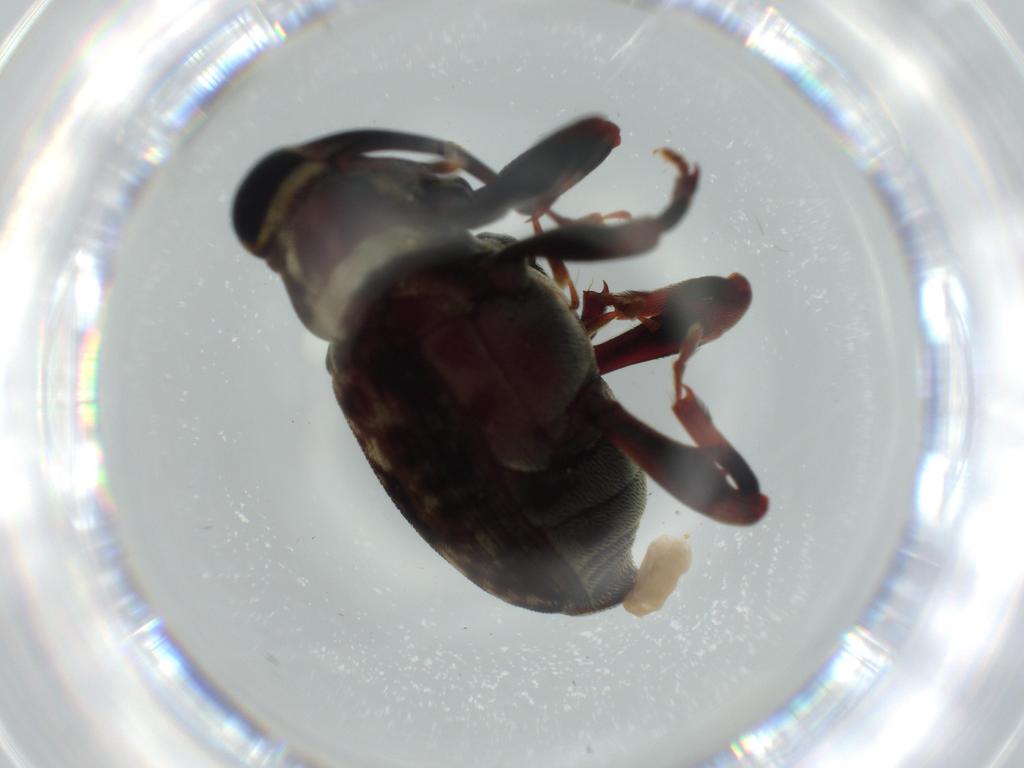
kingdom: Animalia
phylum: Arthropoda
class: Insecta
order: Coleoptera
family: Curculionidae
